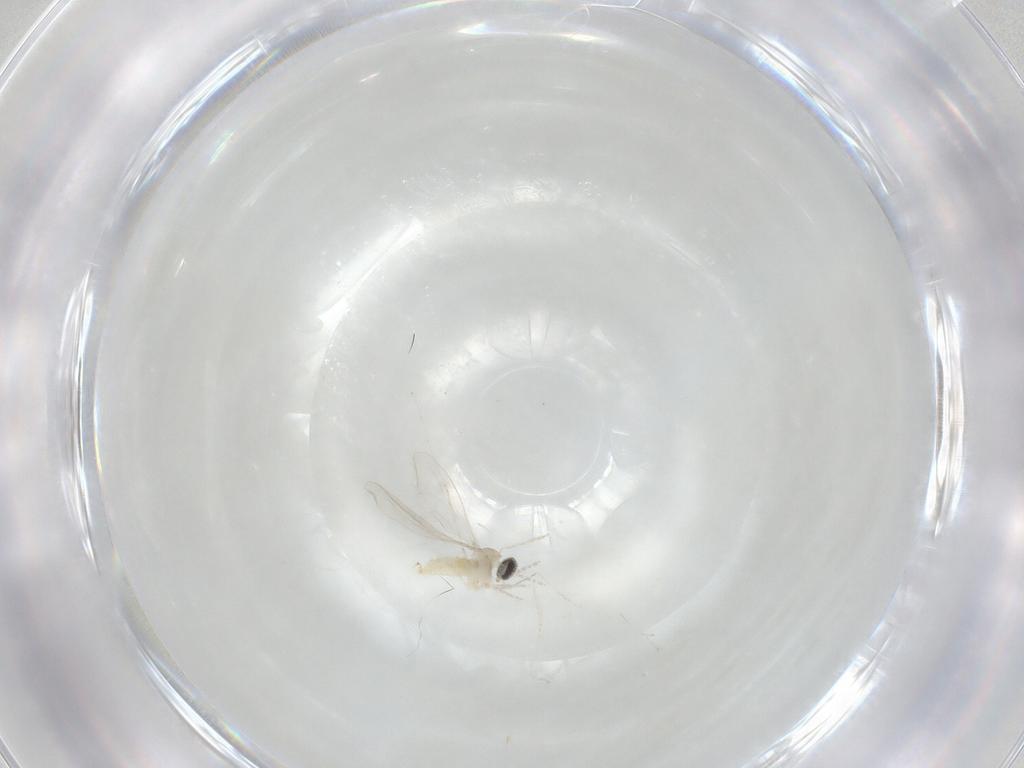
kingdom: Animalia
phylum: Arthropoda
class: Insecta
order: Diptera
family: Cecidomyiidae
